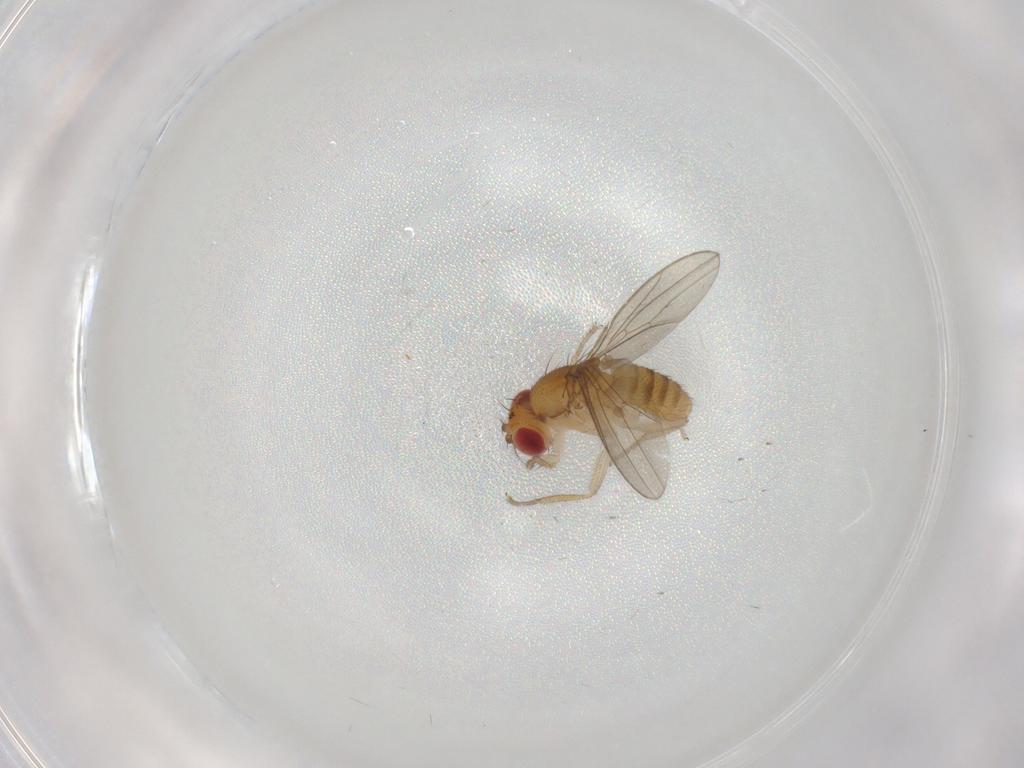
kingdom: Animalia
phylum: Arthropoda
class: Insecta
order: Diptera
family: Drosophilidae
